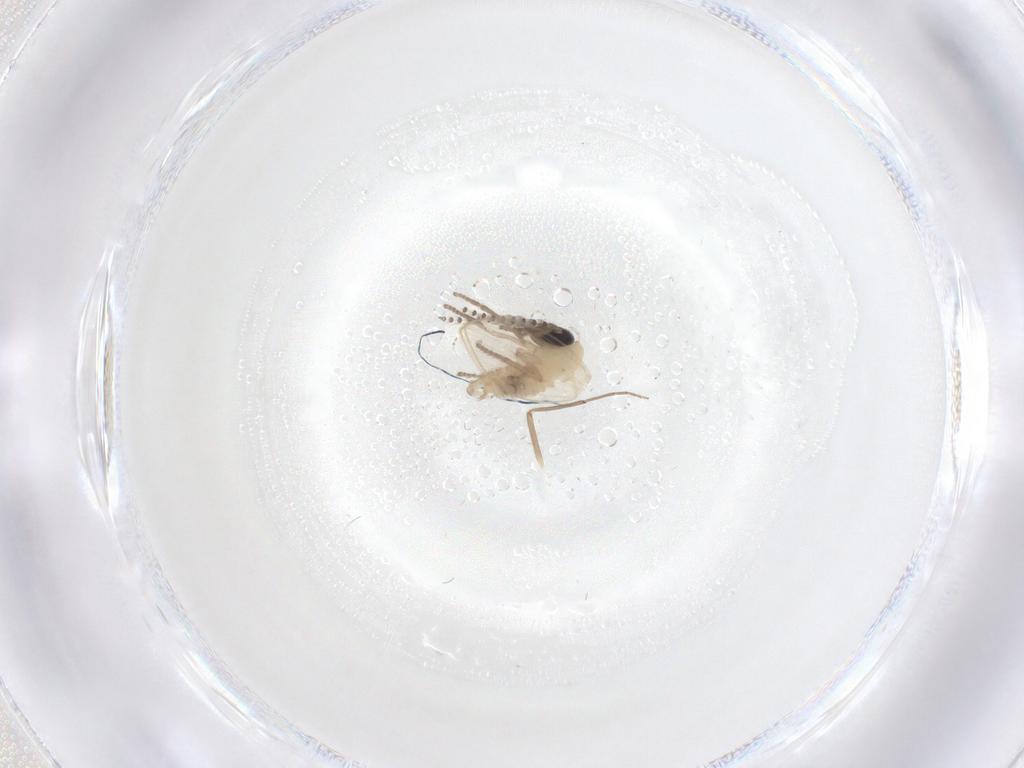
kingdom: Animalia
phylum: Arthropoda
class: Insecta
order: Diptera
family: Psychodidae
